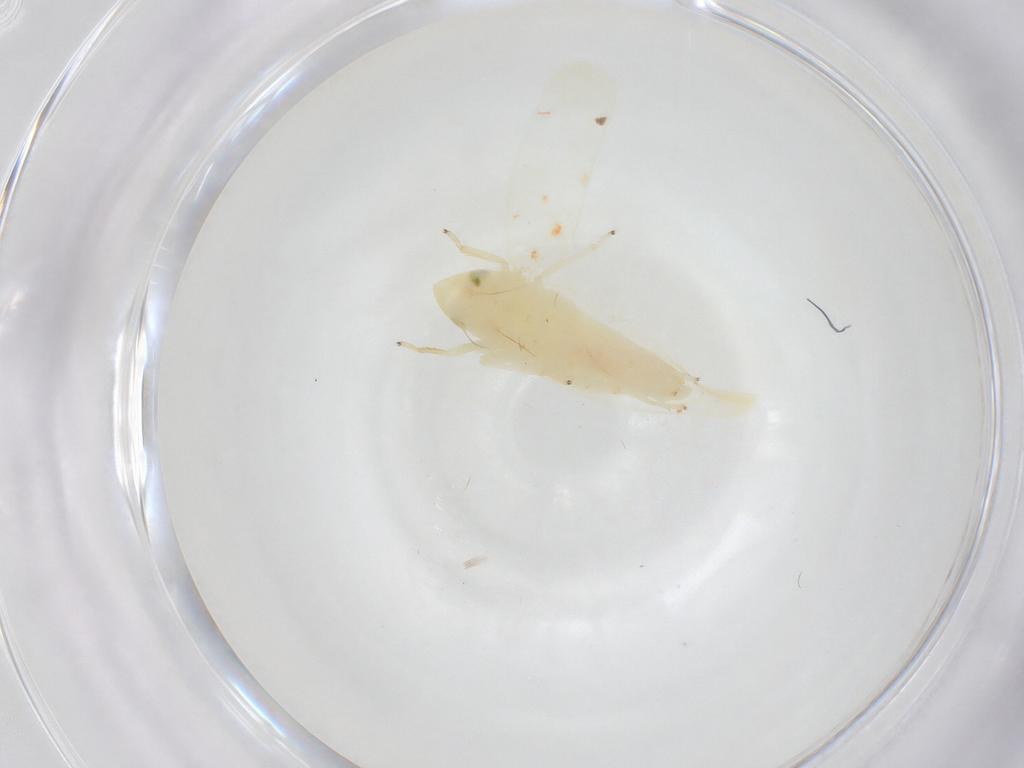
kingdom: Animalia
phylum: Arthropoda
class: Insecta
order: Hemiptera
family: Cicadellidae
